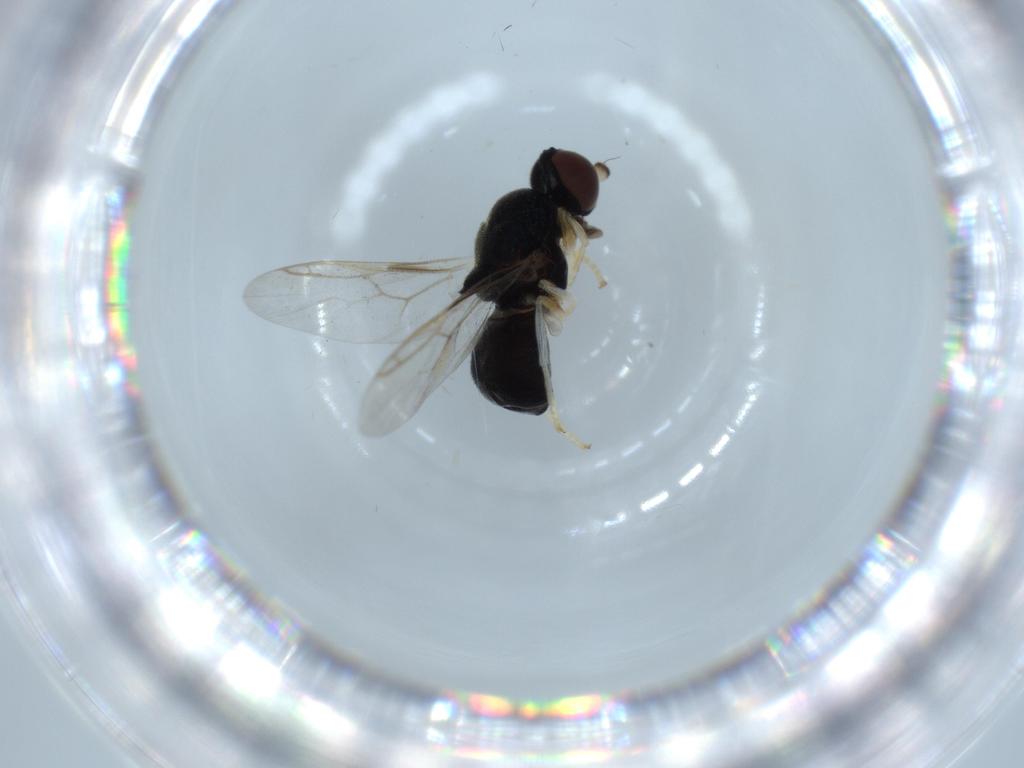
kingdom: Animalia
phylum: Arthropoda
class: Insecta
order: Diptera
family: Stratiomyidae
